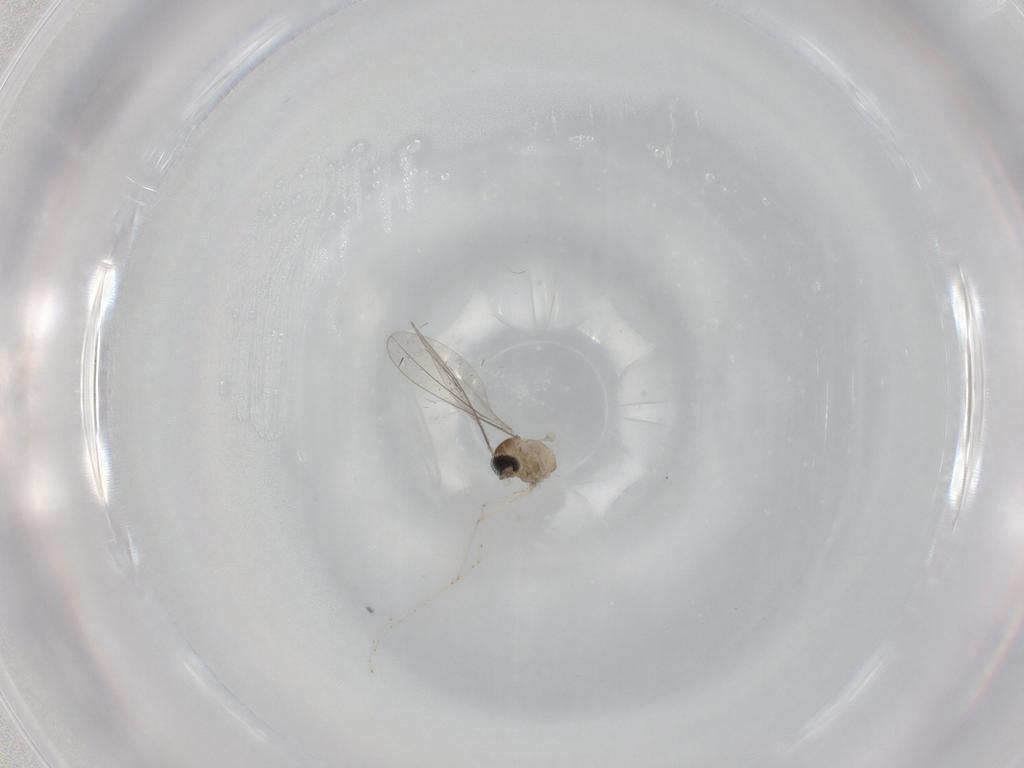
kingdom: Animalia
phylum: Arthropoda
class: Insecta
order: Diptera
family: Cecidomyiidae
